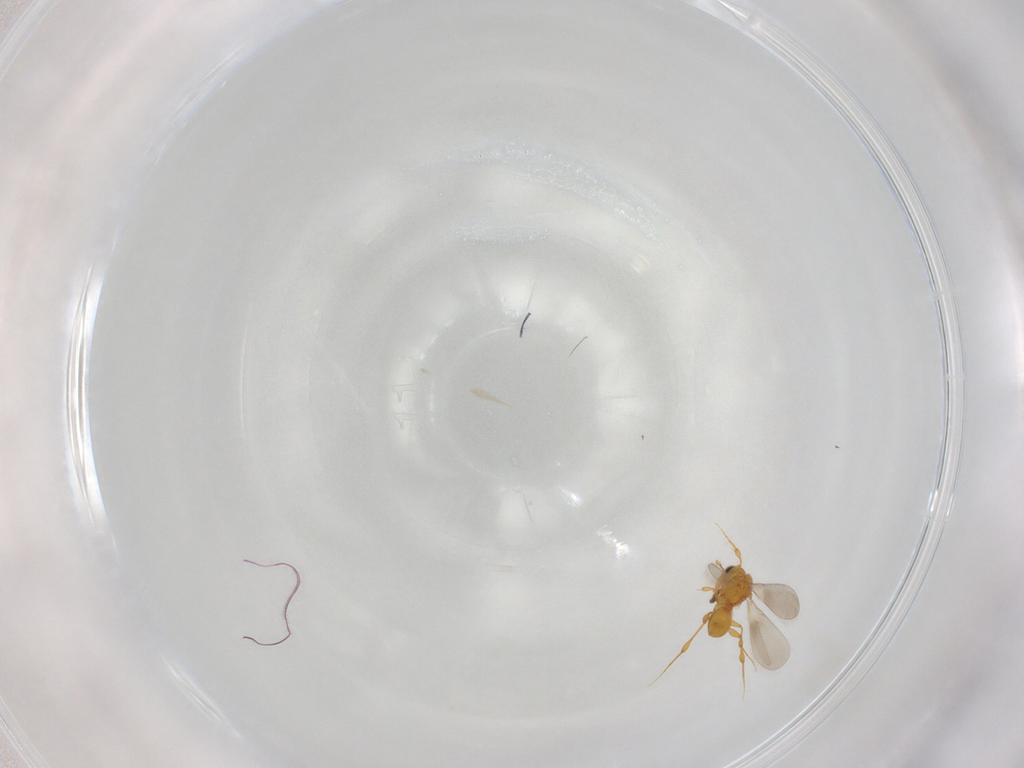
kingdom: Animalia
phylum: Arthropoda
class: Insecta
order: Hymenoptera
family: Platygastridae
